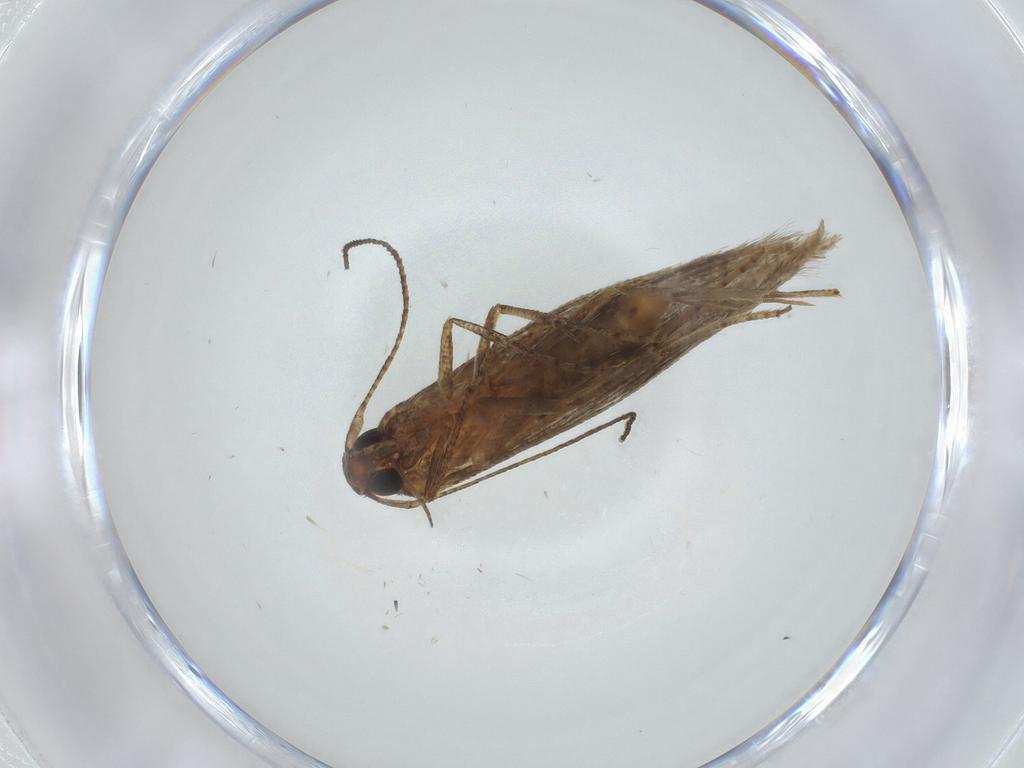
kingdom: Animalia
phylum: Arthropoda
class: Insecta
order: Lepidoptera
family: Elachistidae
